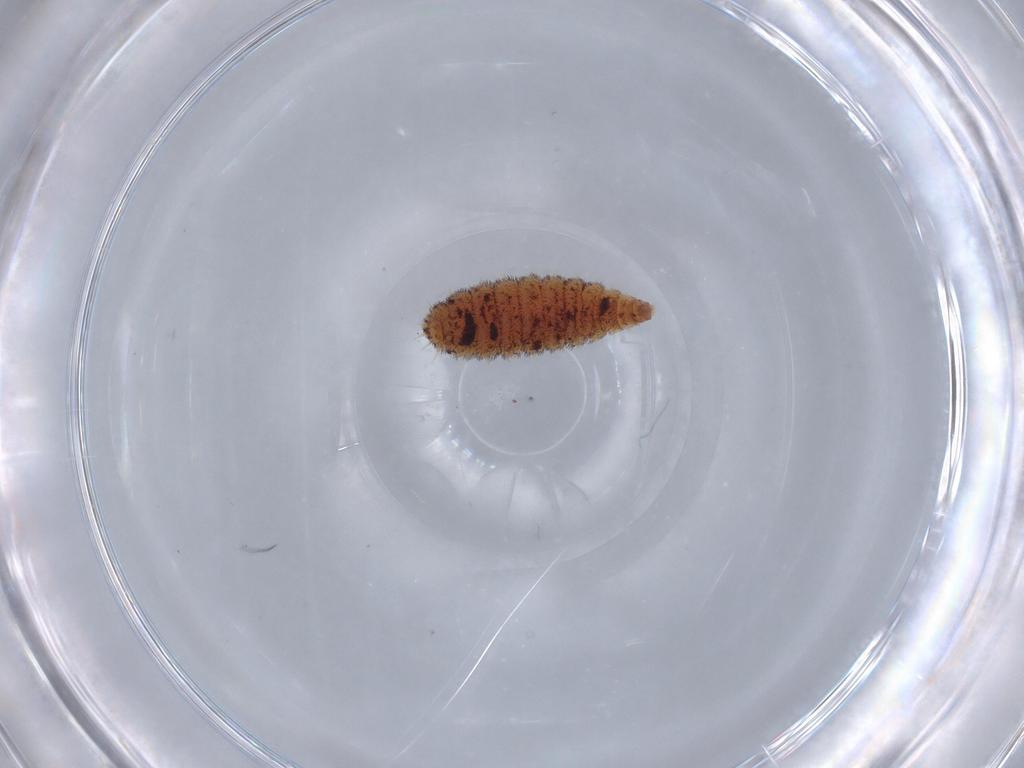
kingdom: Animalia
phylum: Arthropoda
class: Insecta
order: Diptera
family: Phoridae
